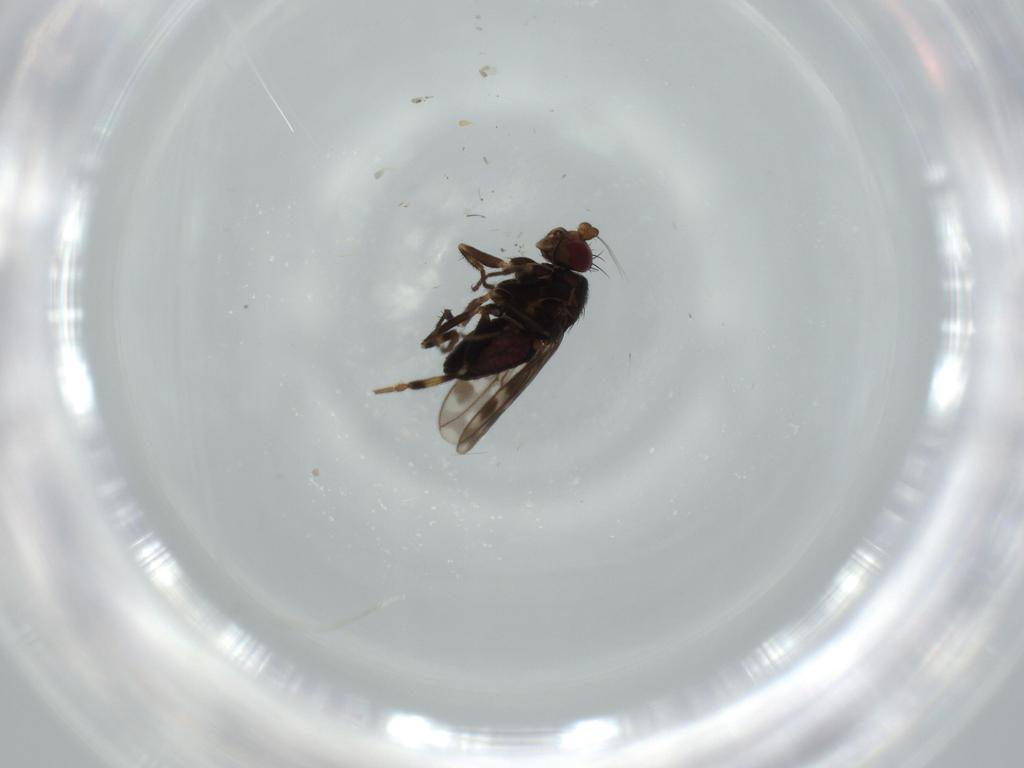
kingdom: Animalia
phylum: Arthropoda
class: Insecta
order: Diptera
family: Sphaeroceridae
